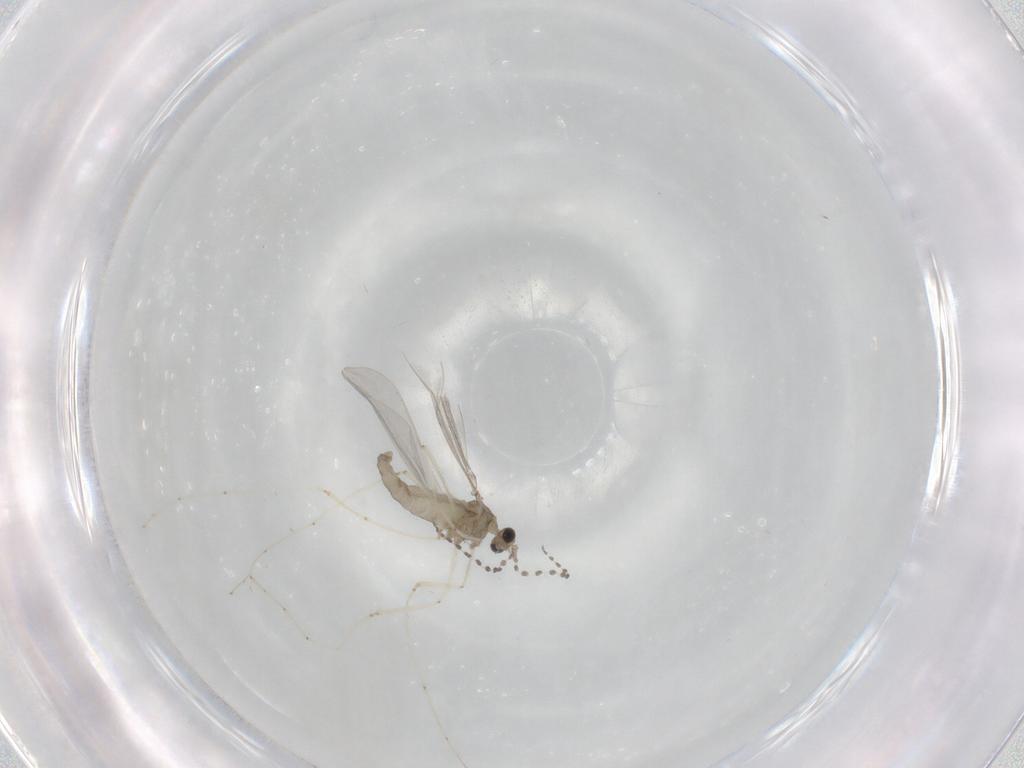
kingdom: Animalia
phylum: Arthropoda
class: Insecta
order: Diptera
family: Cecidomyiidae
